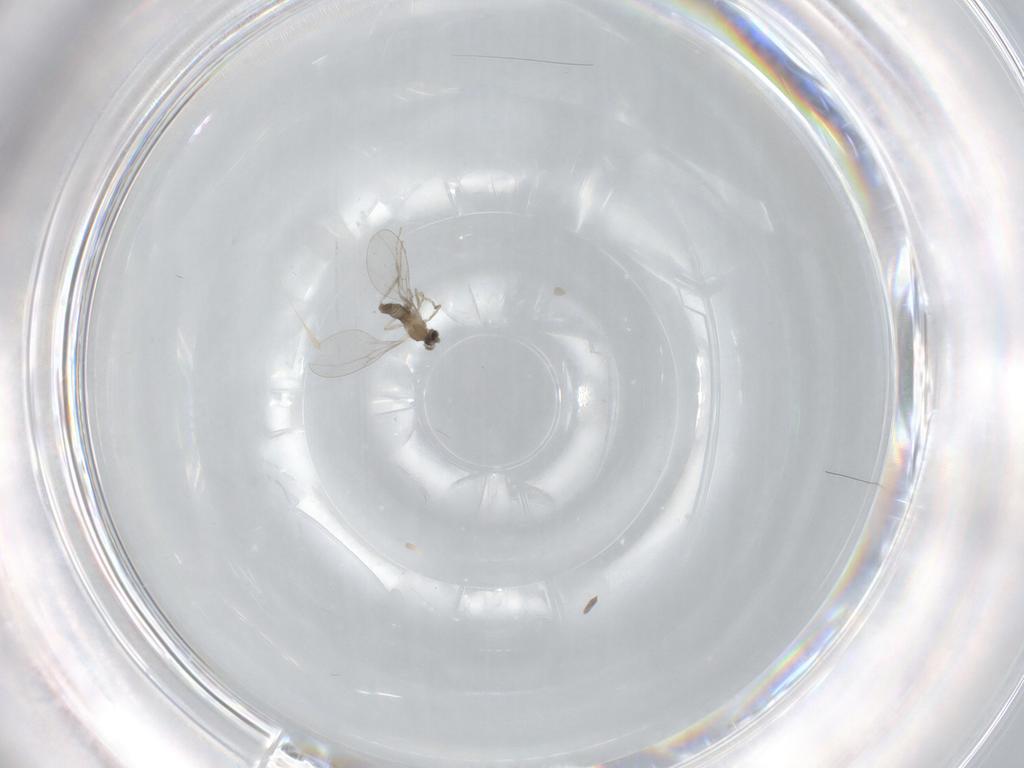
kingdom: Animalia
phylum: Arthropoda
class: Insecta
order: Diptera
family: Cecidomyiidae
